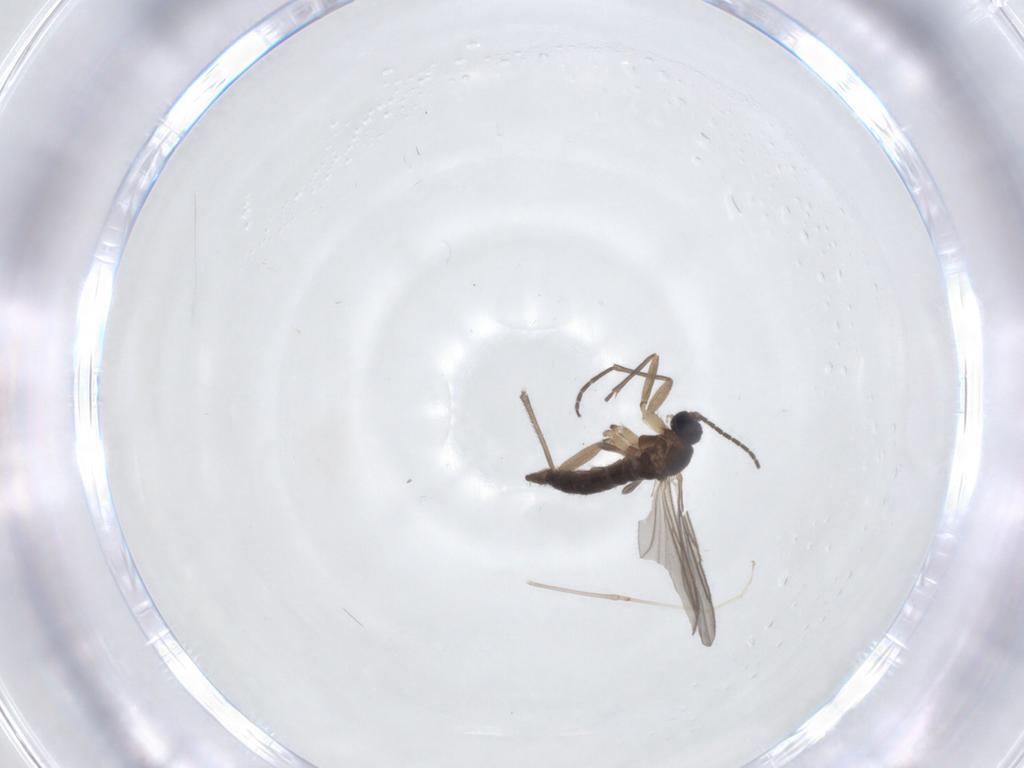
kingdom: Animalia
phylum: Arthropoda
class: Insecta
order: Diptera
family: Sciaridae
